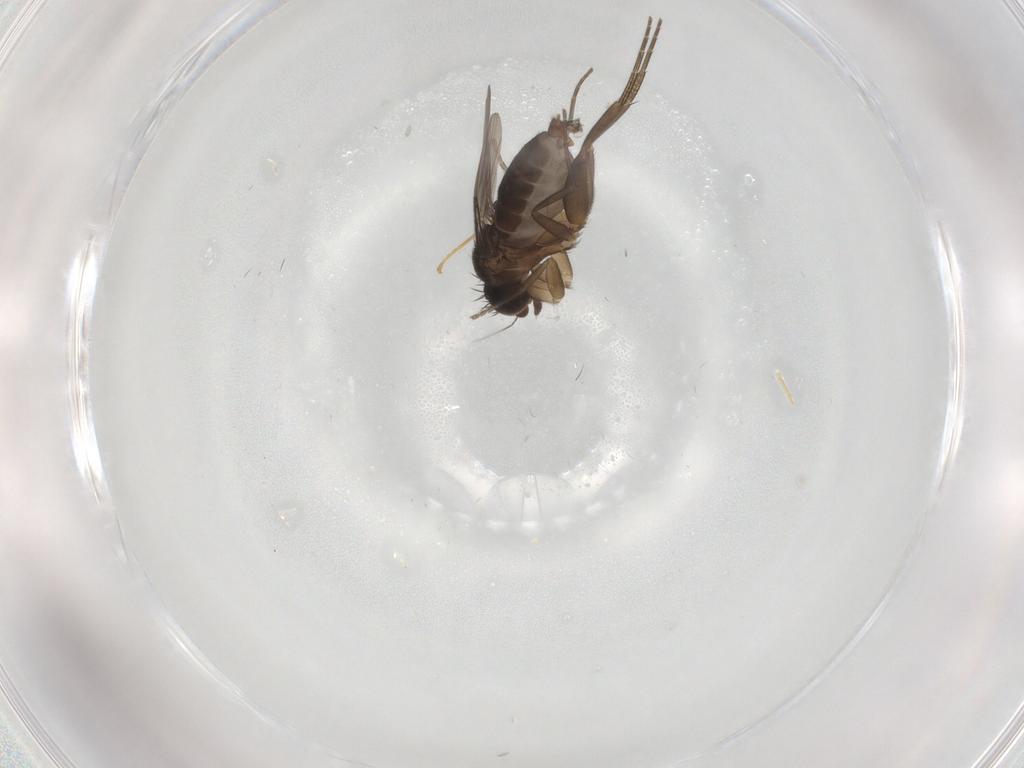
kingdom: Animalia
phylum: Arthropoda
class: Insecta
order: Diptera
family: Phoridae
